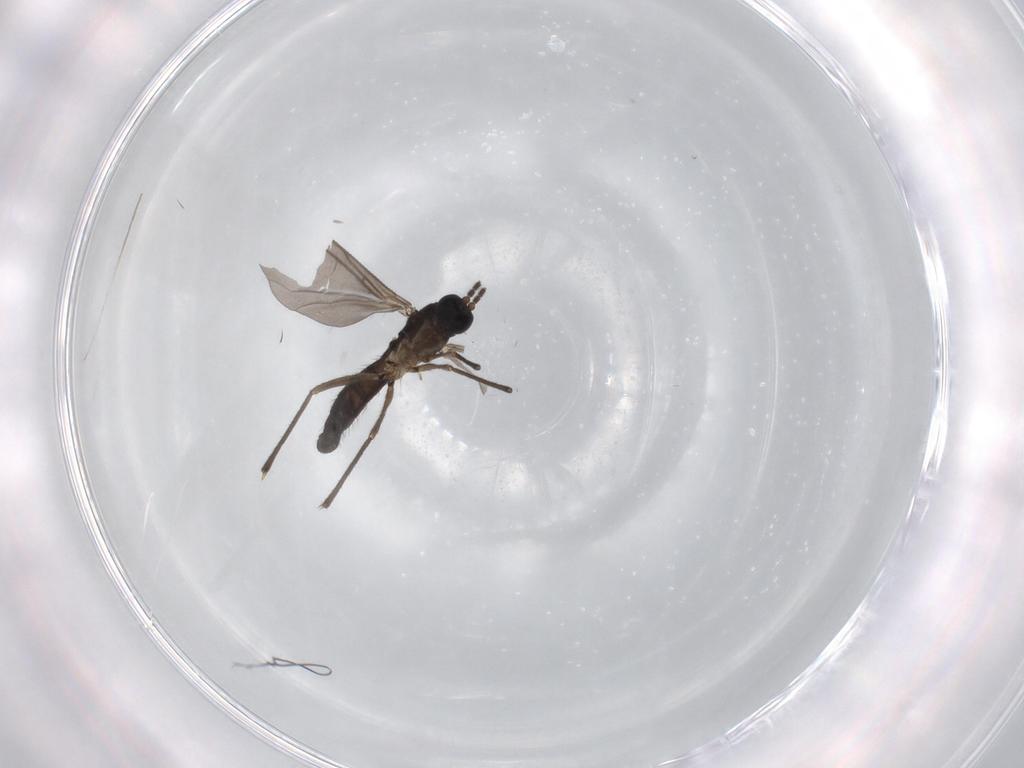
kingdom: Animalia
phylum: Arthropoda
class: Insecta
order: Diptera
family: Sciaridae
